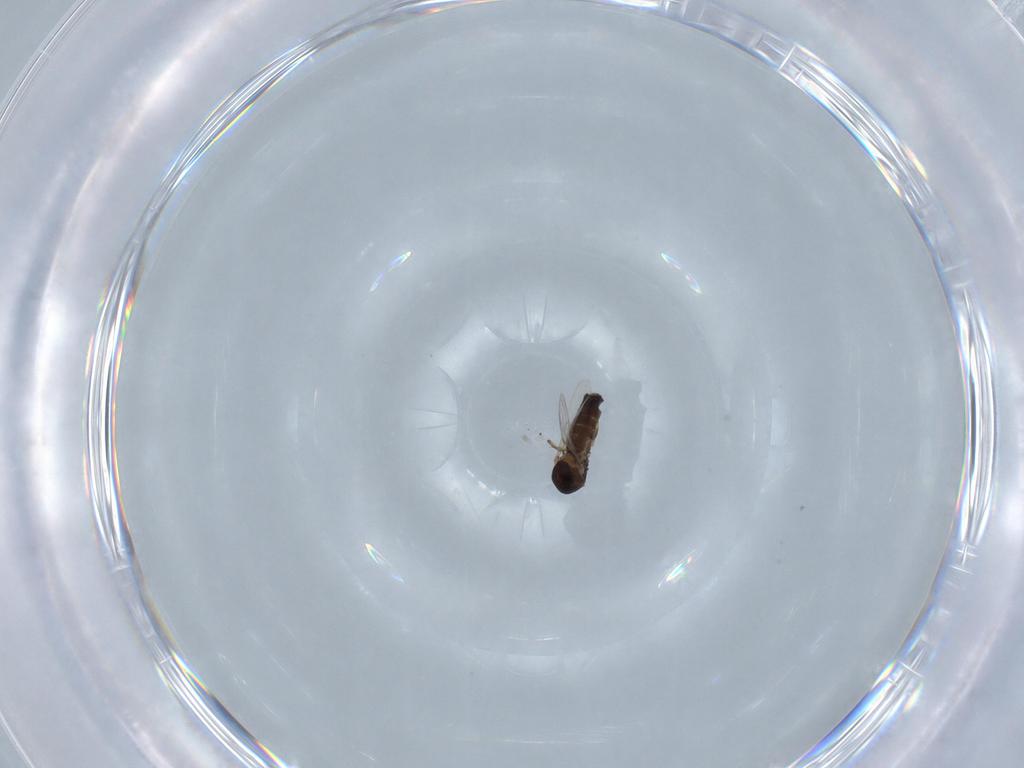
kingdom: Animalia
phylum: Arthropoda
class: Insecta
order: Diptera
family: Ceratopogonidae
